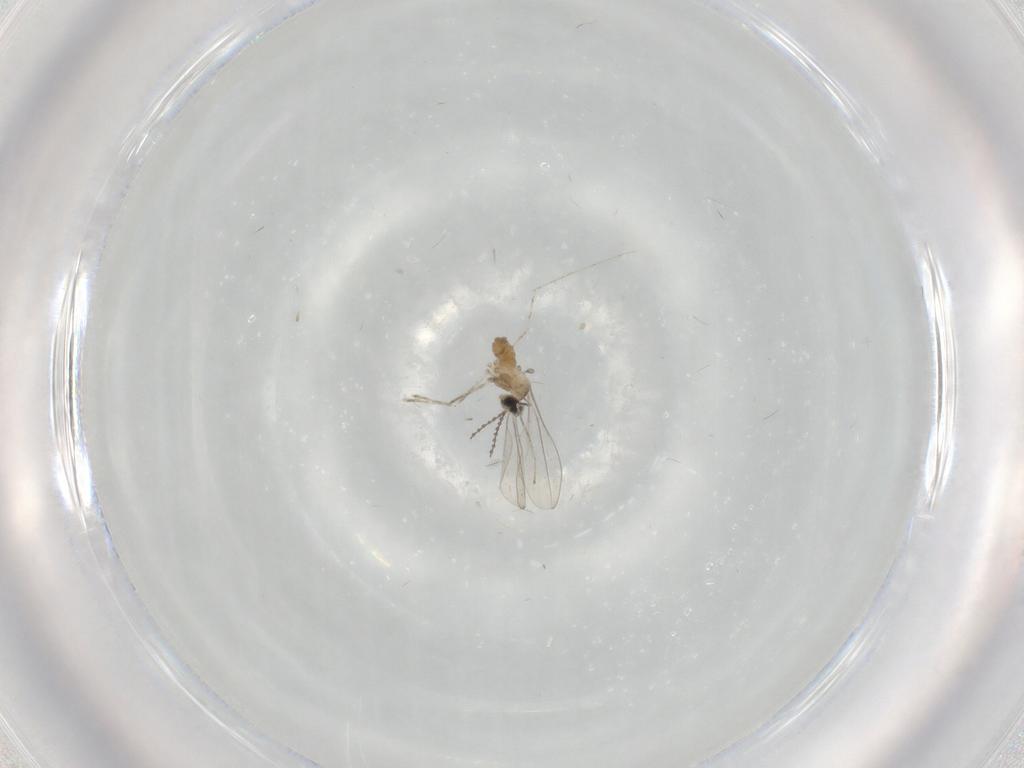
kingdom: Animalia
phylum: Arthropoda
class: Insecta
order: Diptera
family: Cecidomyiidae
